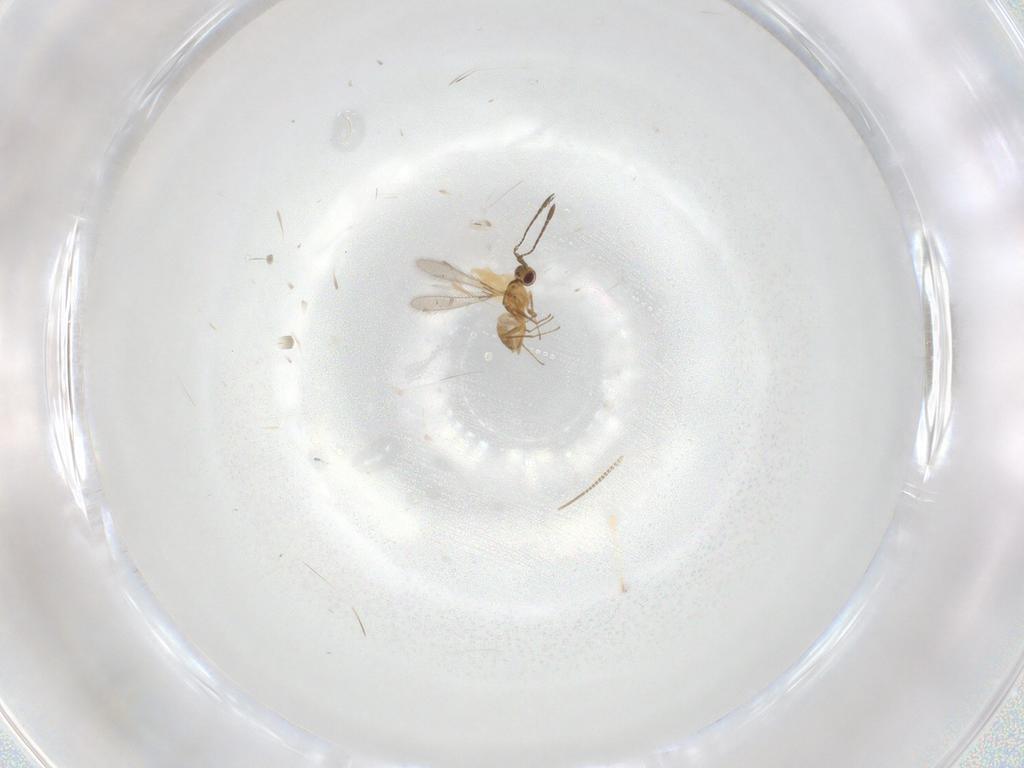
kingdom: Animalia
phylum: Arthropoda
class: Insecta
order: Hymenoptera
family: Mymaridae
